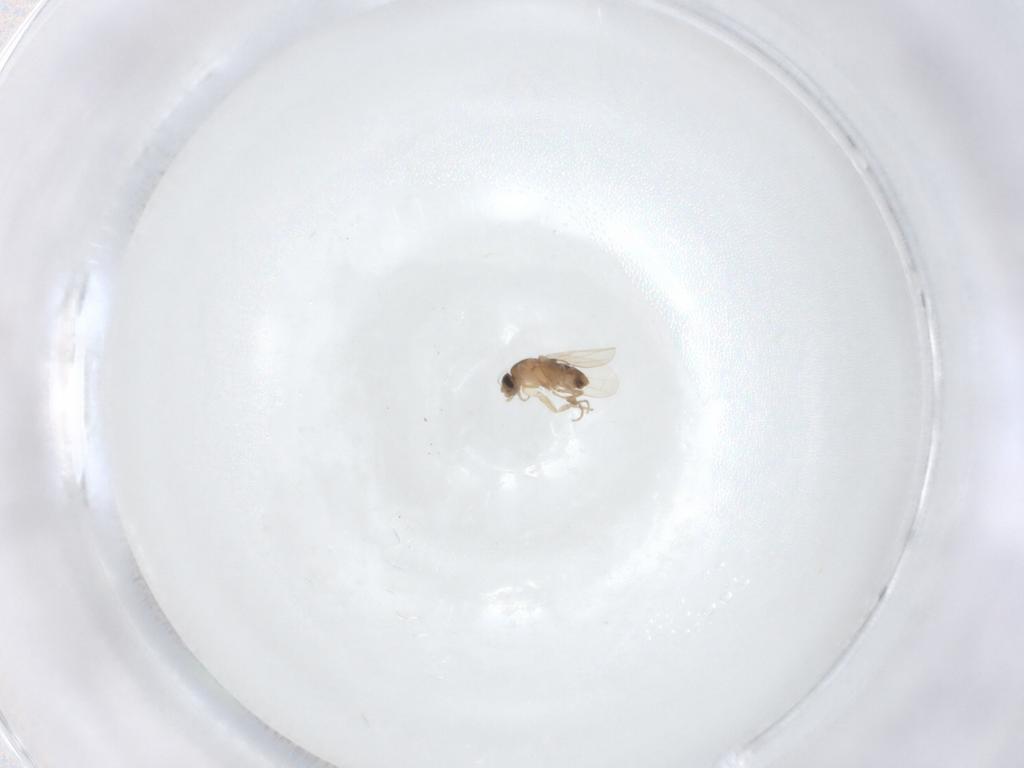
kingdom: Animalia
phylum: Arthropoda
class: Insecta
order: Diptera
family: Phoridae
